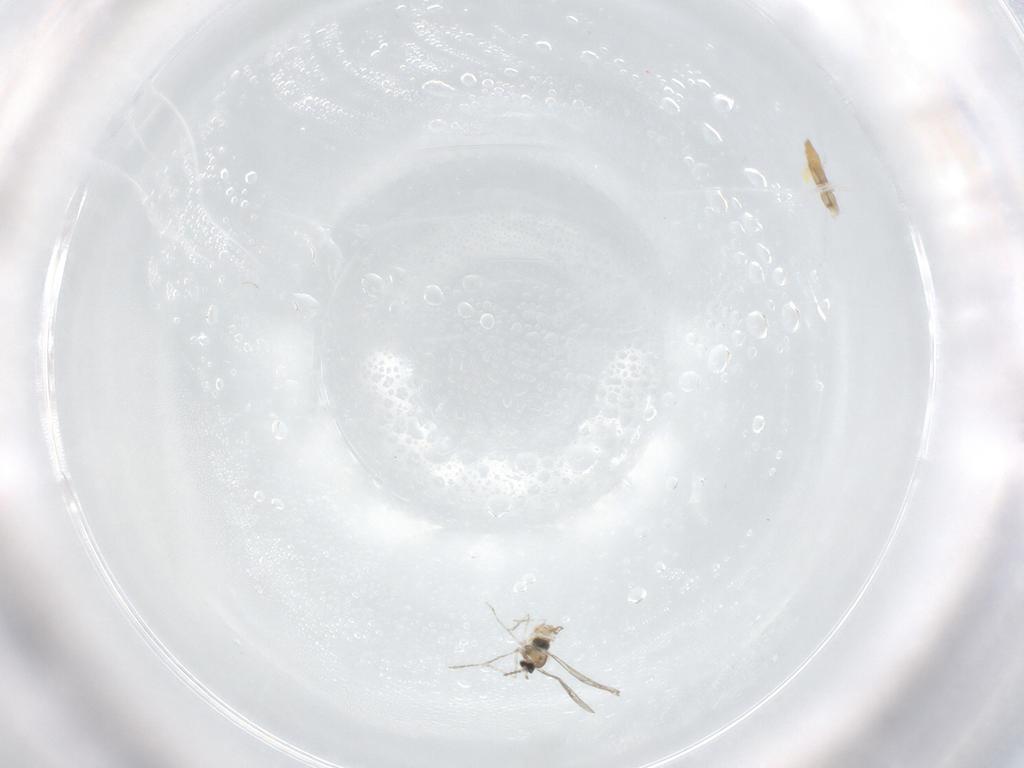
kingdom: Animalia
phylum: Arthropoda
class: Insecta
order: Diptera
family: Cecidomyiidae
